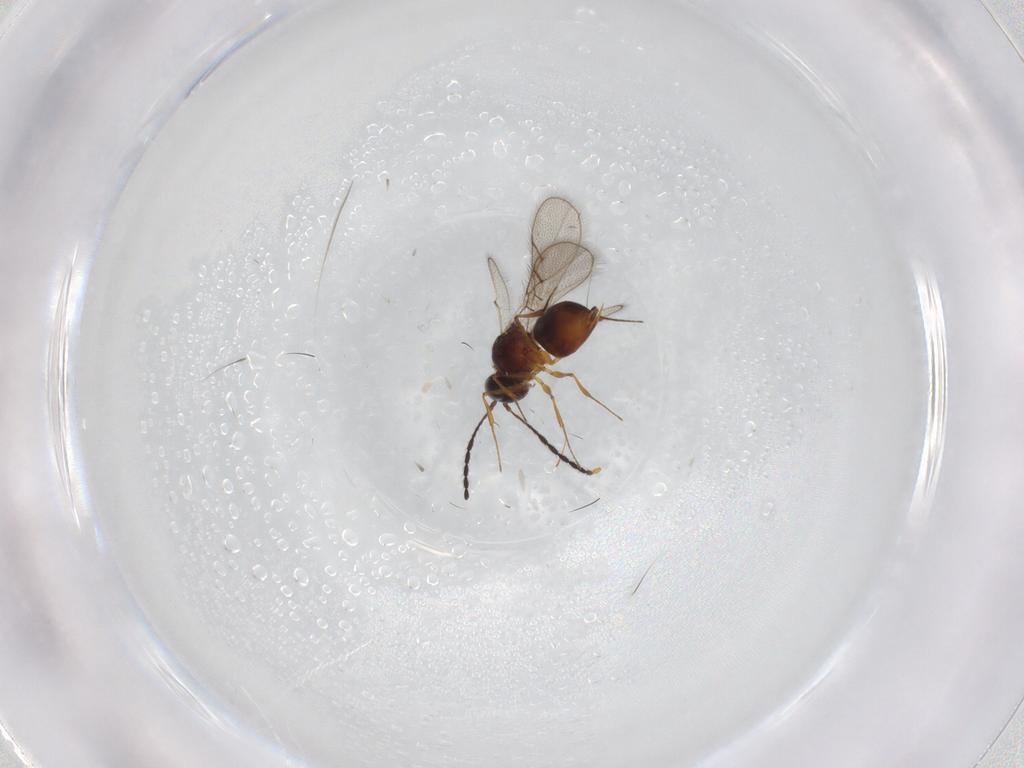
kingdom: Animalia
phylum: Arthropoda
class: Insecta
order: Hymenoptera
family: Figitidae
